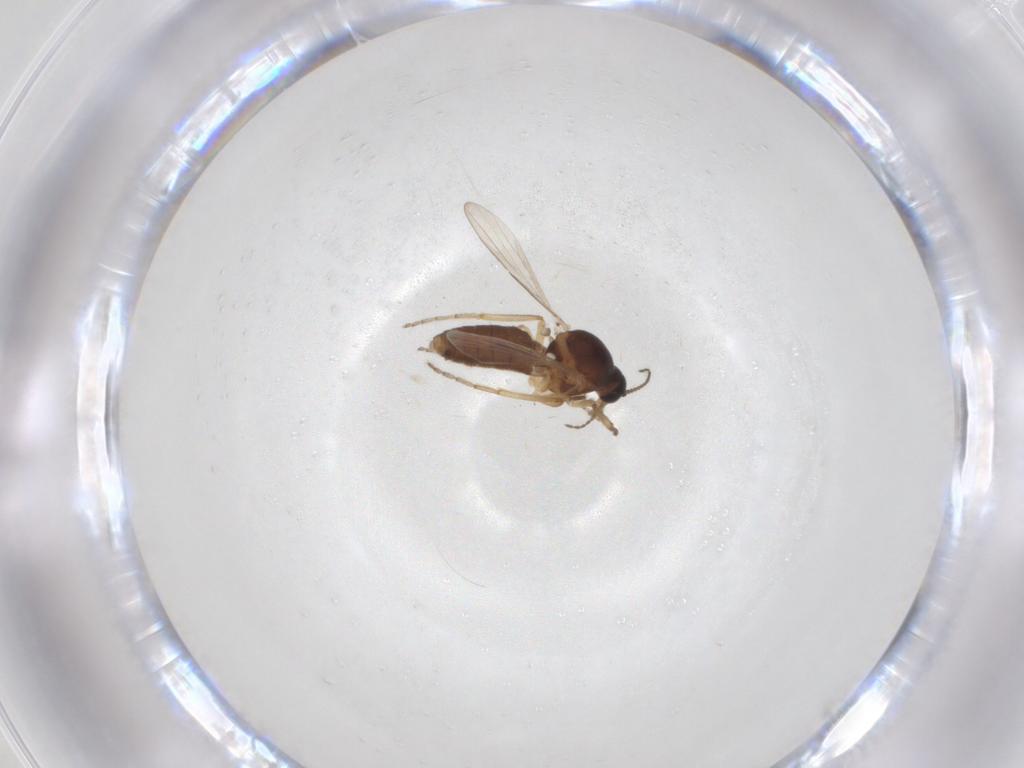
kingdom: Animalia
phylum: Arthropoda
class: Insecta
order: Diptera
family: Ceratopogonidae
